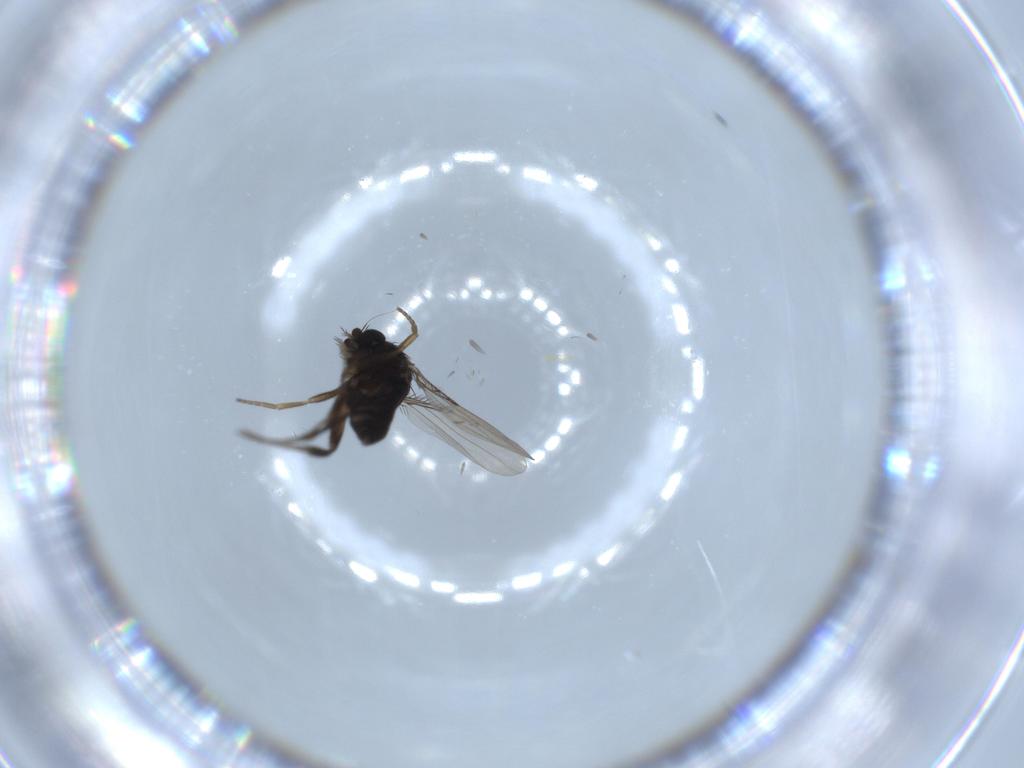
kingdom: Animalia
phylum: Arthropoda
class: Insecta
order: Diptera
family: Phoridae
